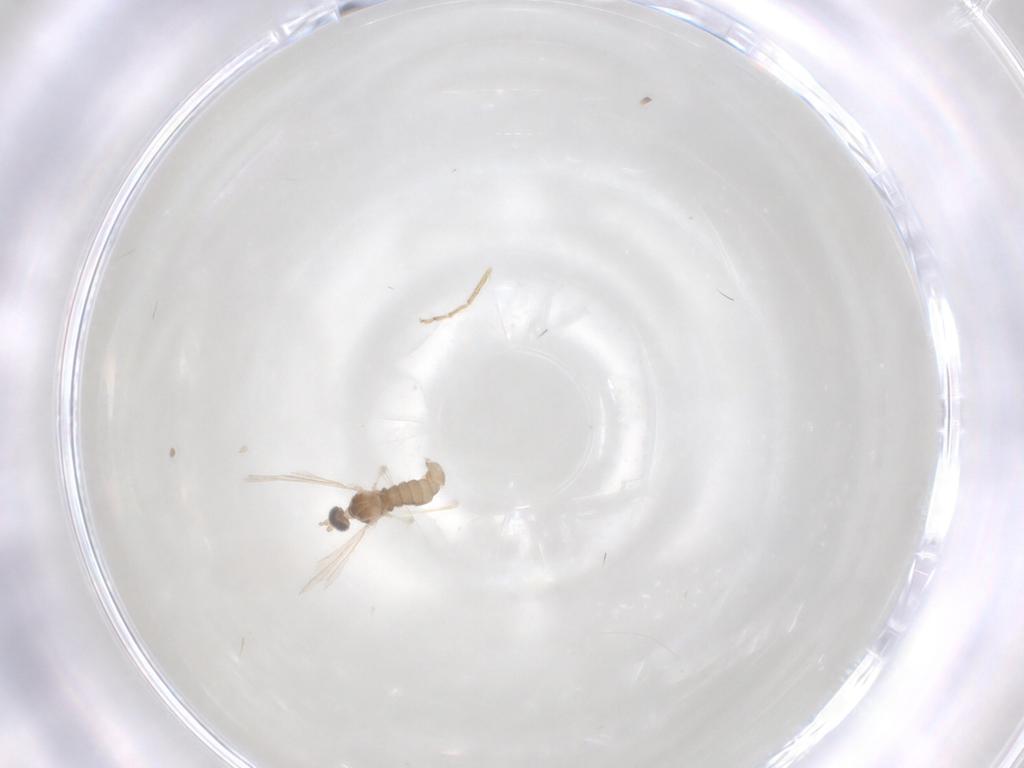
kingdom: Animalia
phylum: Arthropoda
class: Insecta
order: Diptera
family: Ceratopogonidae
